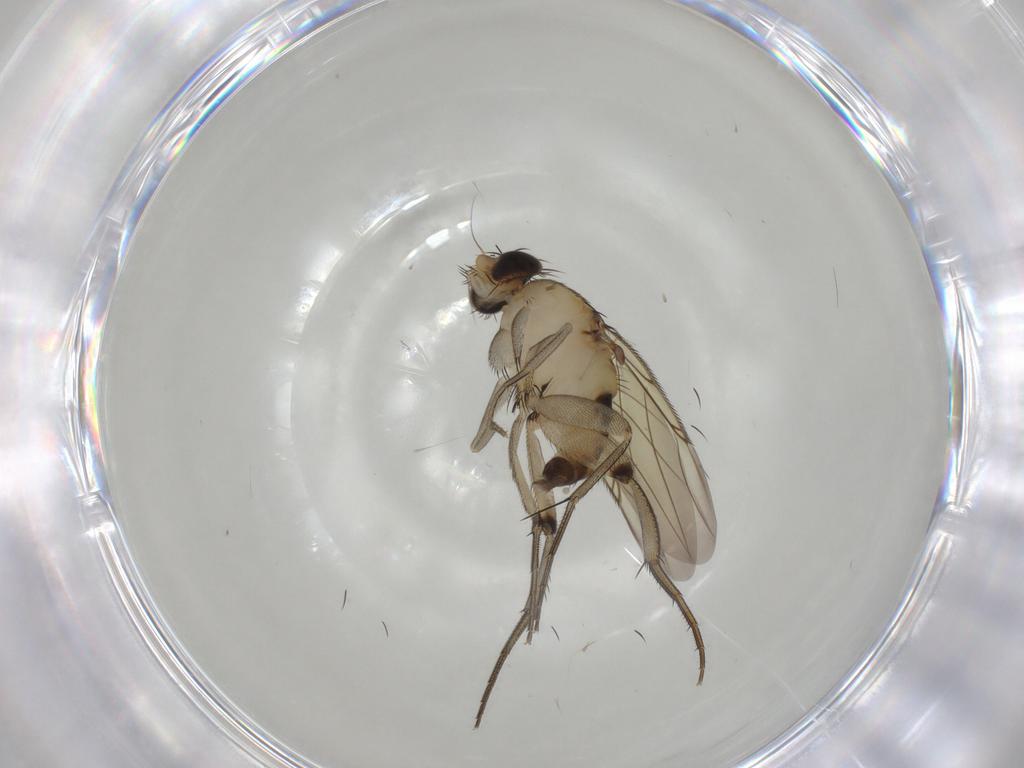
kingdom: Animalia
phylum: Arthropoda
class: Insecta
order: Diptera
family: Phoridae
